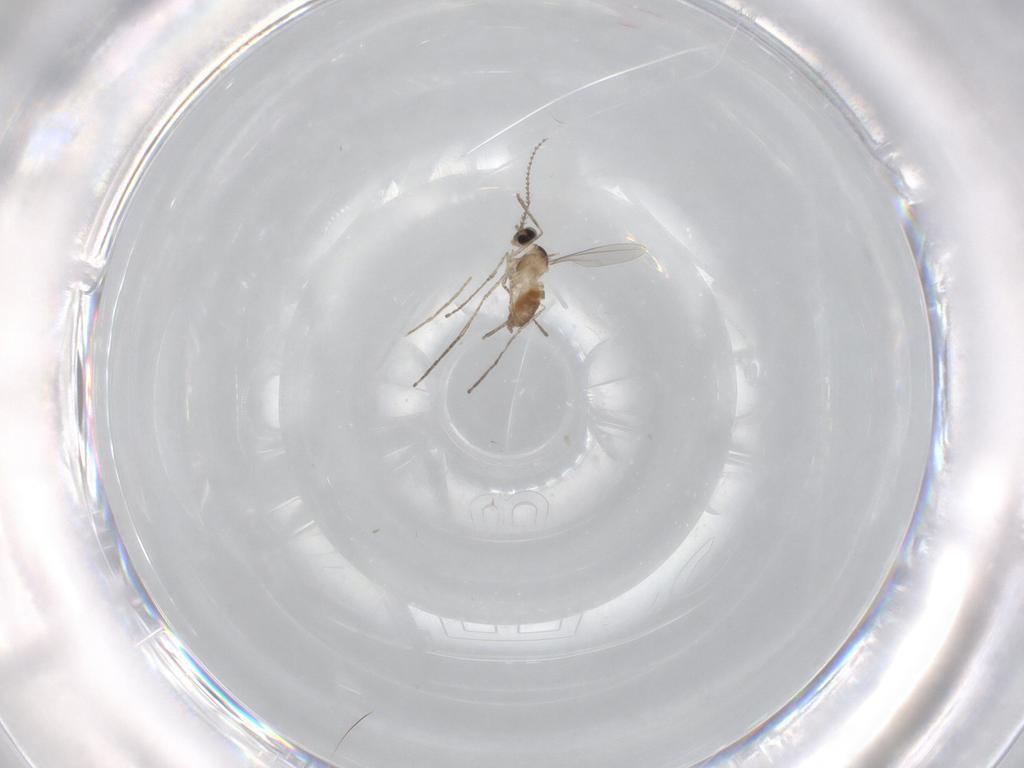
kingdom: Animalia
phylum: Arthropoda
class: Insecta
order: Diptera
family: Cecidomyiidae
